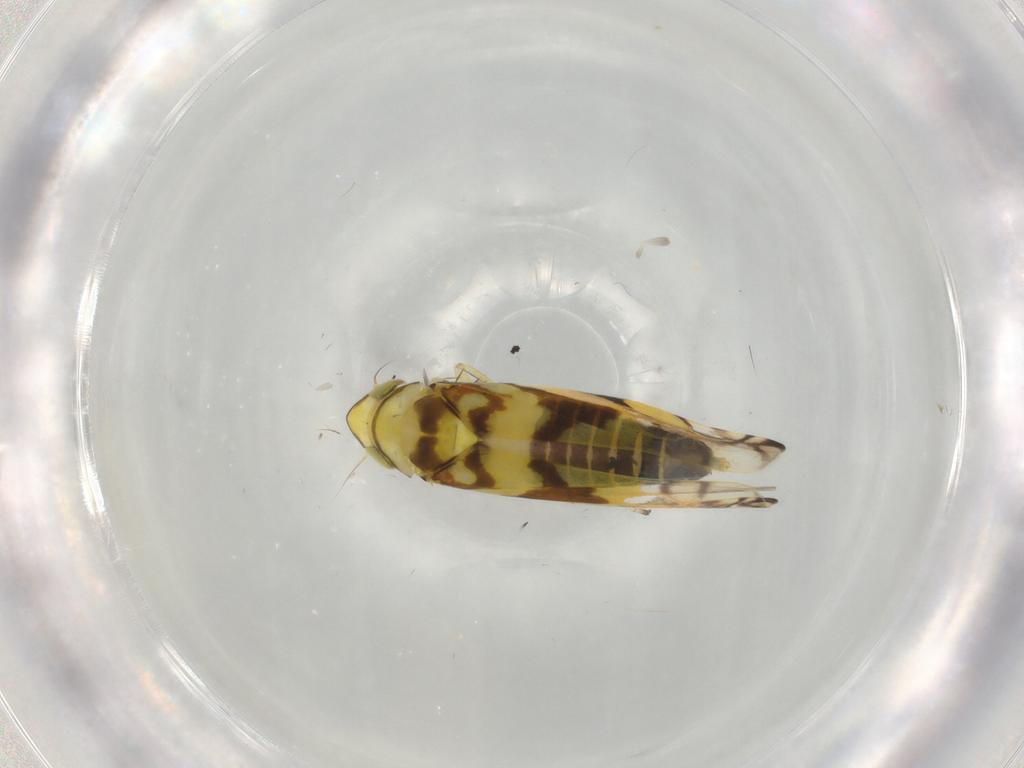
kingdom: Animalia
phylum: Arthropoda
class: Insecta
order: Hemiptera
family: Cicadellidae
